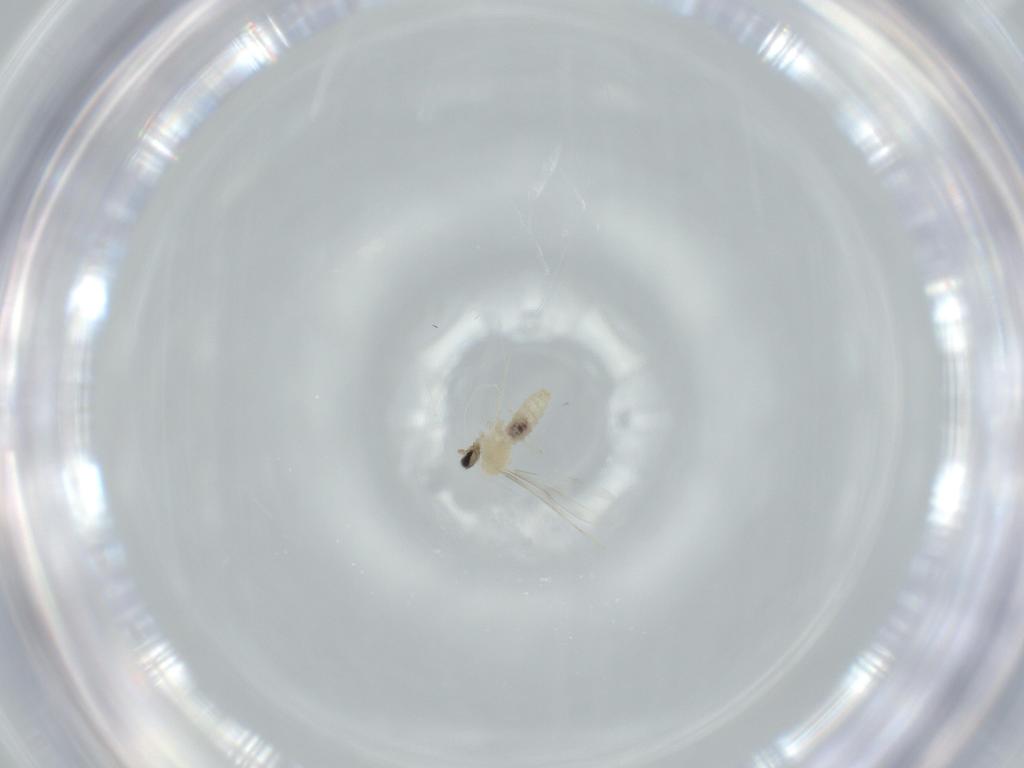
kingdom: Animalia
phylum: Arthropoda
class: Insecta
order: Diptera
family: Cecidomyiidae
